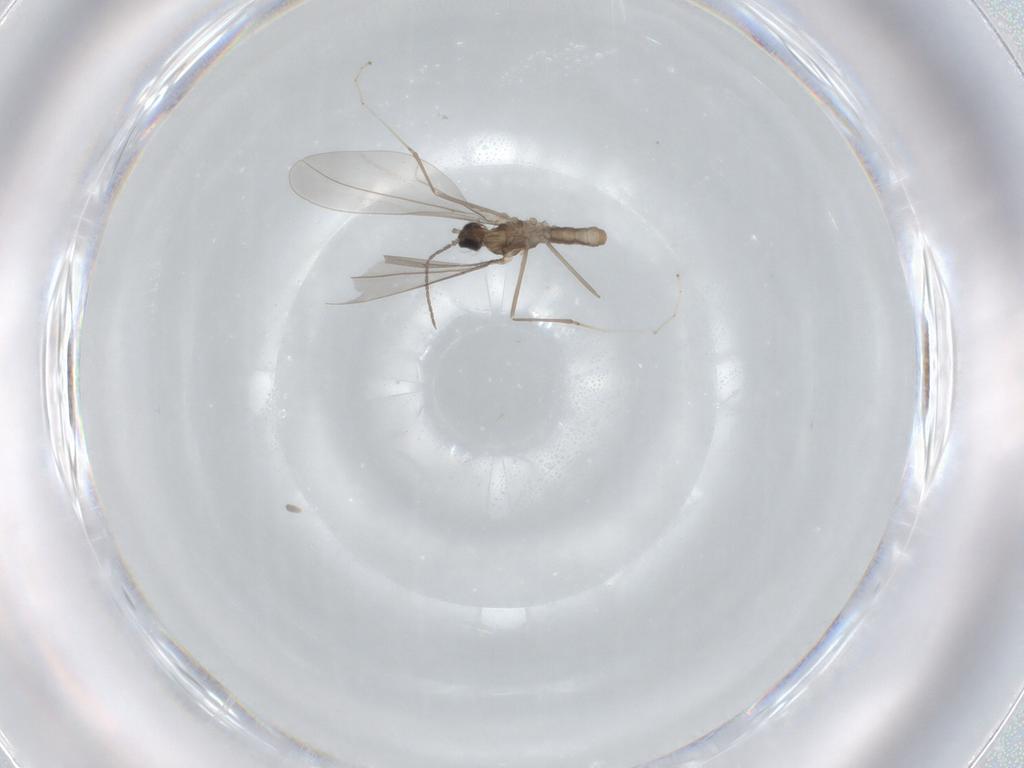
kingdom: Animalia
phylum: Arthropoda
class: Insecta
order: Diptera
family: Cecidomyiidae
